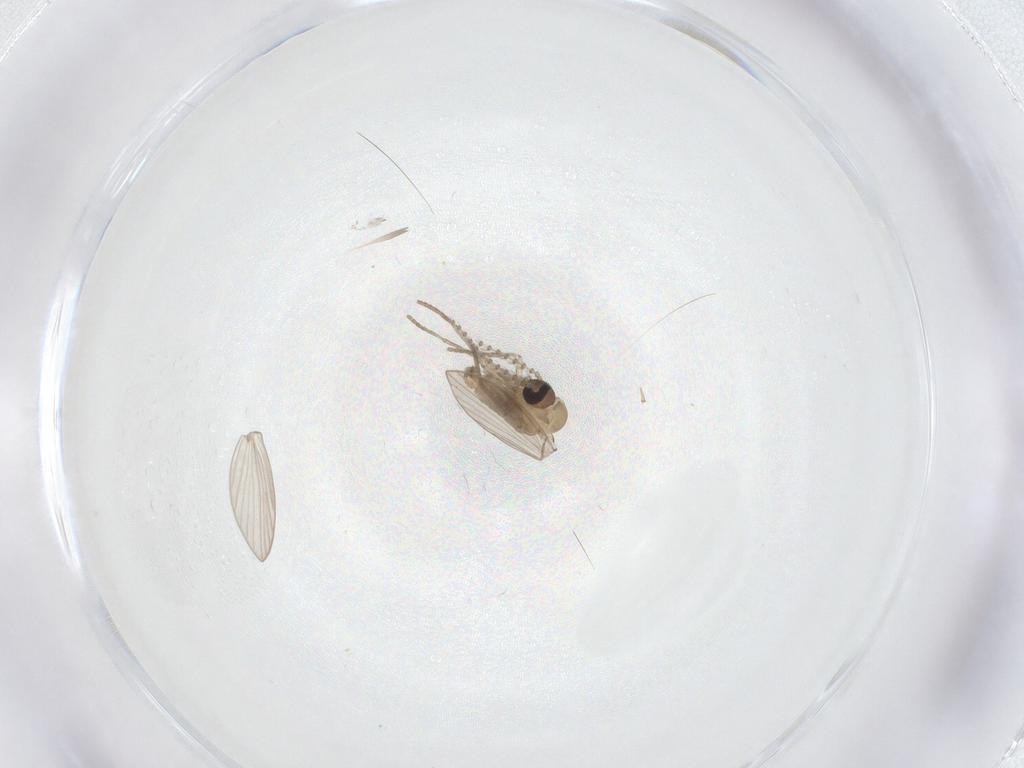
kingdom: Animalia
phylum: Arthropoda
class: Insecta
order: Diptera
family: Psychodidae
